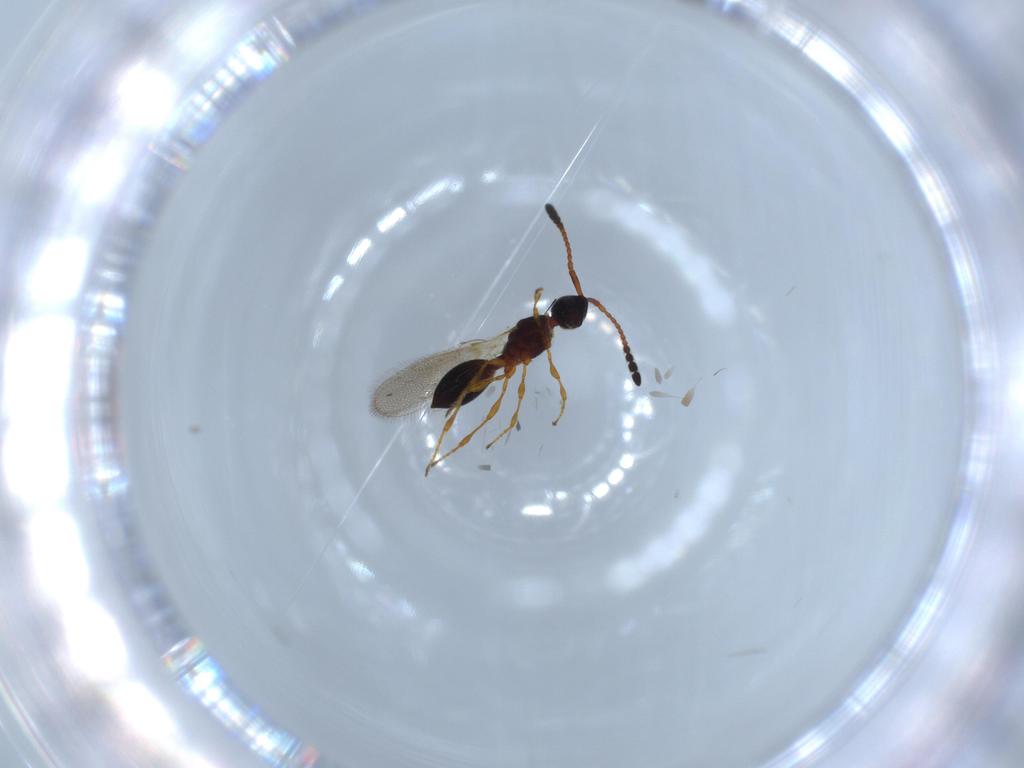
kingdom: Animalia
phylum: Arthropoda
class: Insecta
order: Hymenoptera
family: Diapriidae
